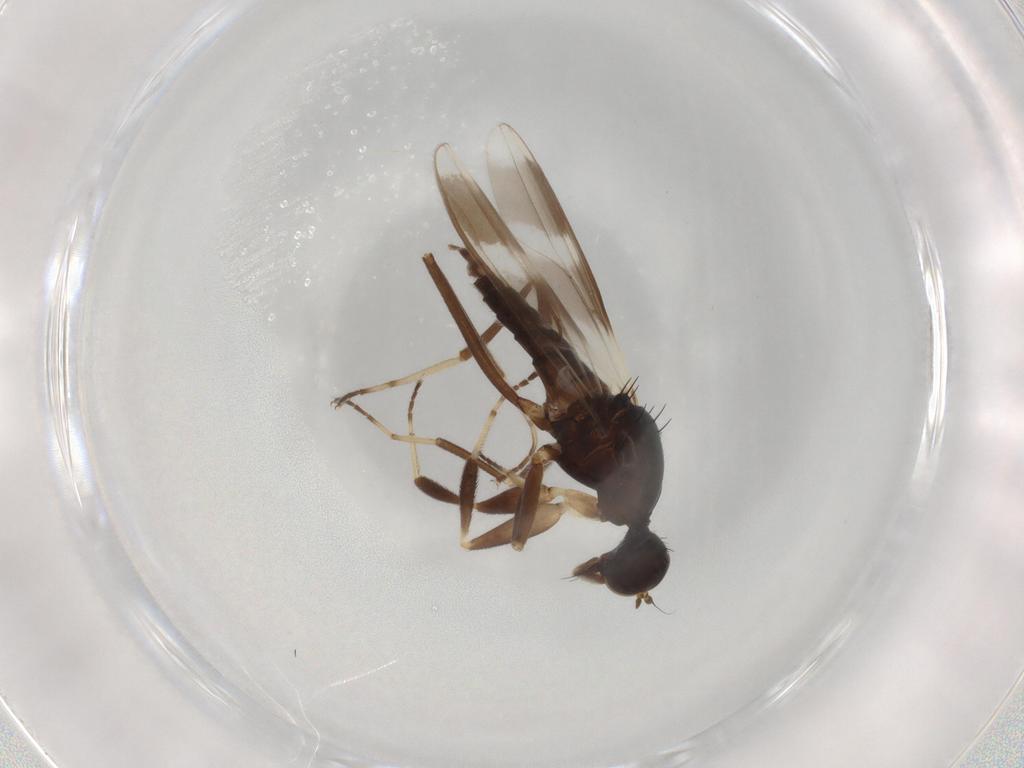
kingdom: Animalia
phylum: Arthropoda
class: Insecta
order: Diptera
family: Hybotidae
